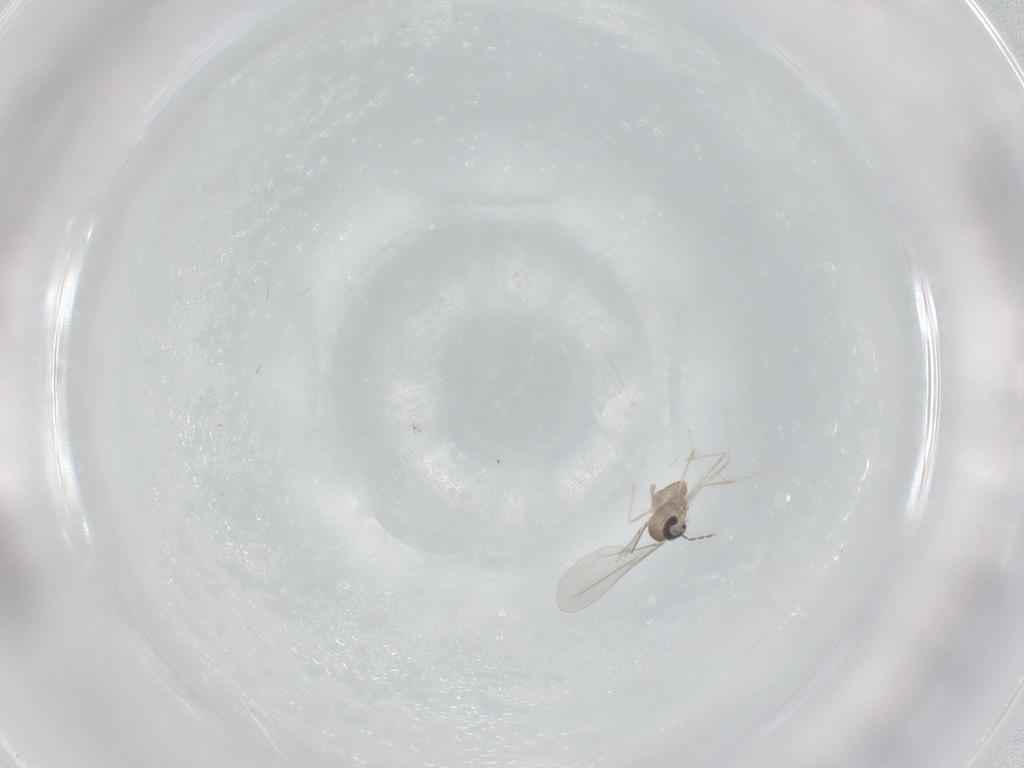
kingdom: Animalia
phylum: Arthropoda
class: Insecta
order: Diptera
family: Cecidomyiidae
